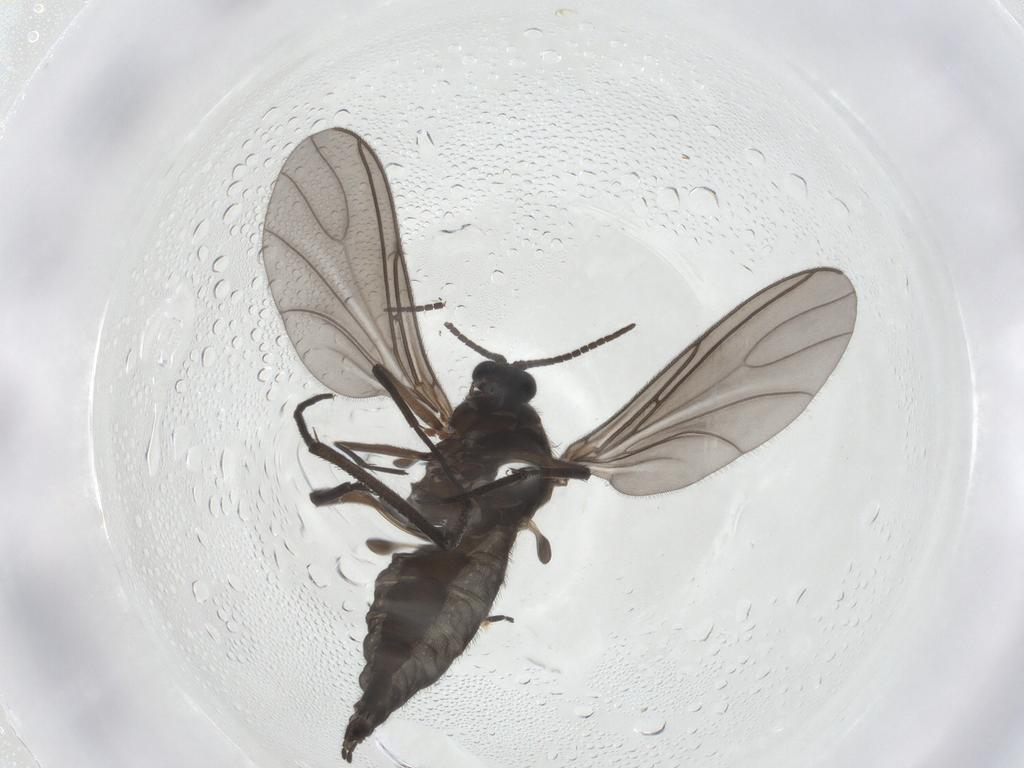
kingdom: Animalia
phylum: Arthropoda
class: Insecta
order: Diptera
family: Sciaridae
